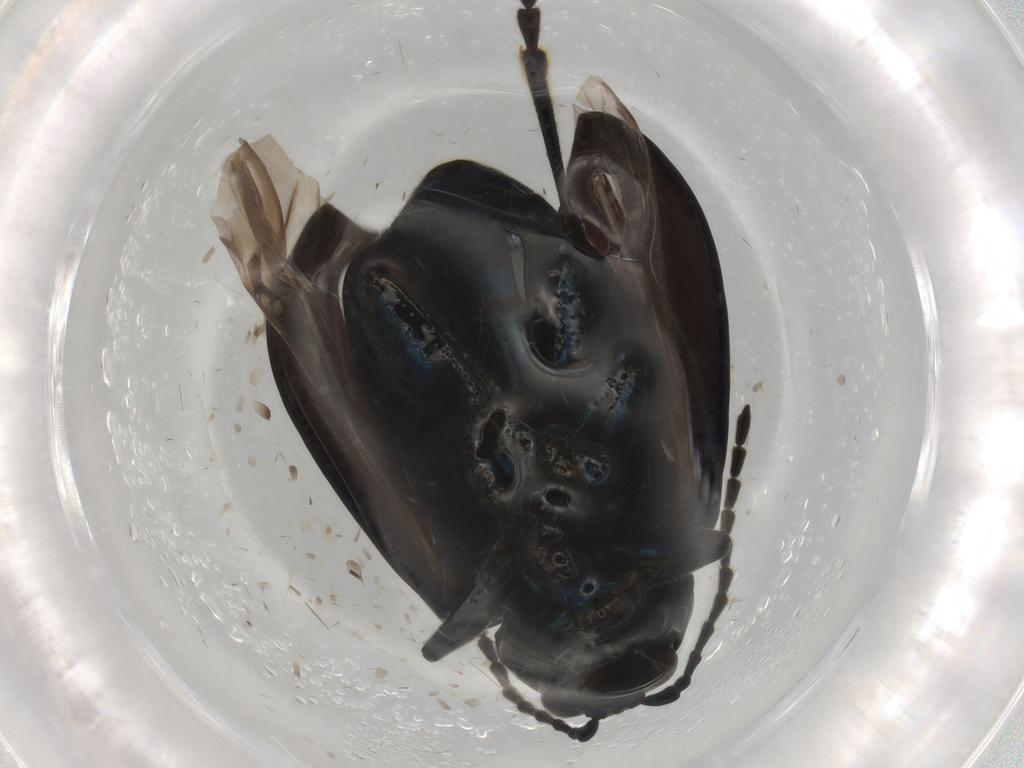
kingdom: Animalia
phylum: Arthropoda
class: Insecta
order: Coleoptera
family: Chrysomelidae
